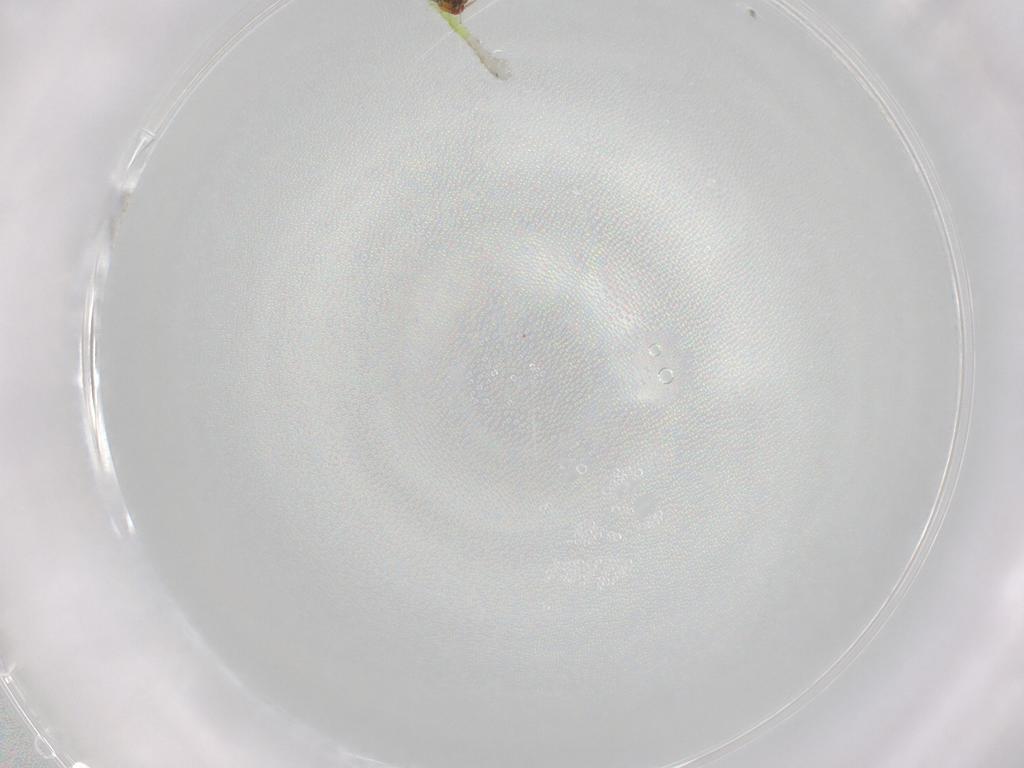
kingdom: Animalia
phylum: Arthropoda
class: Insecta
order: Hymenoptera
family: Trichogrammatidae
